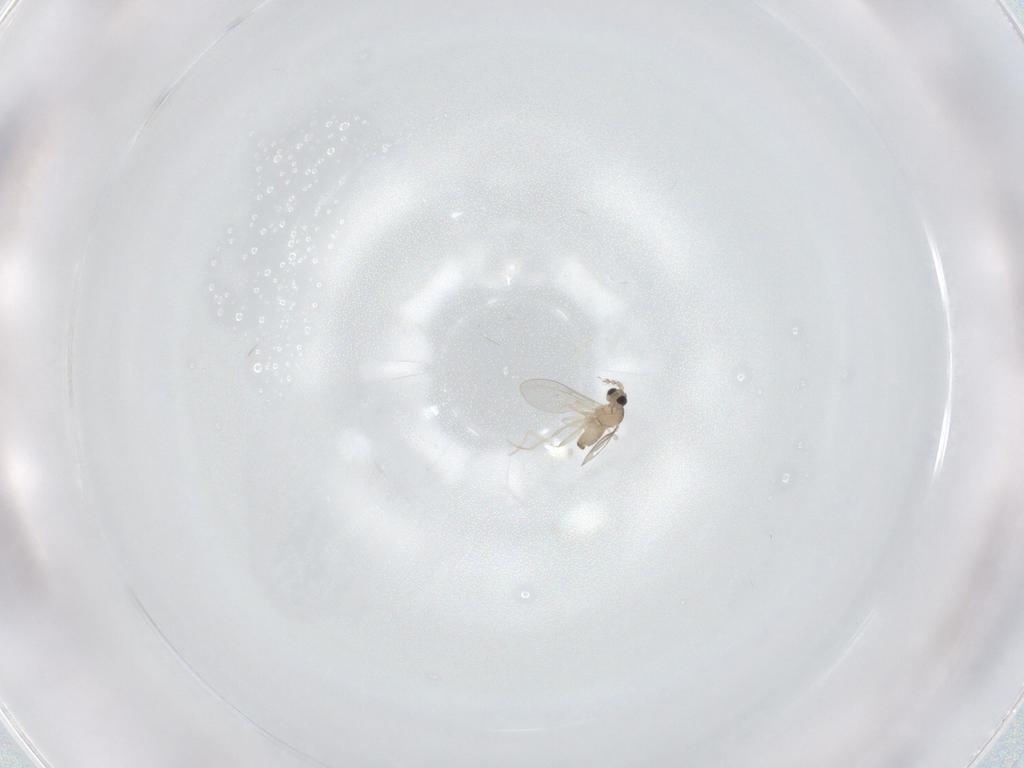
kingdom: Animalia
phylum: Arthropoda
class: Insecta
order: Diptera
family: Cecidomyiidae
